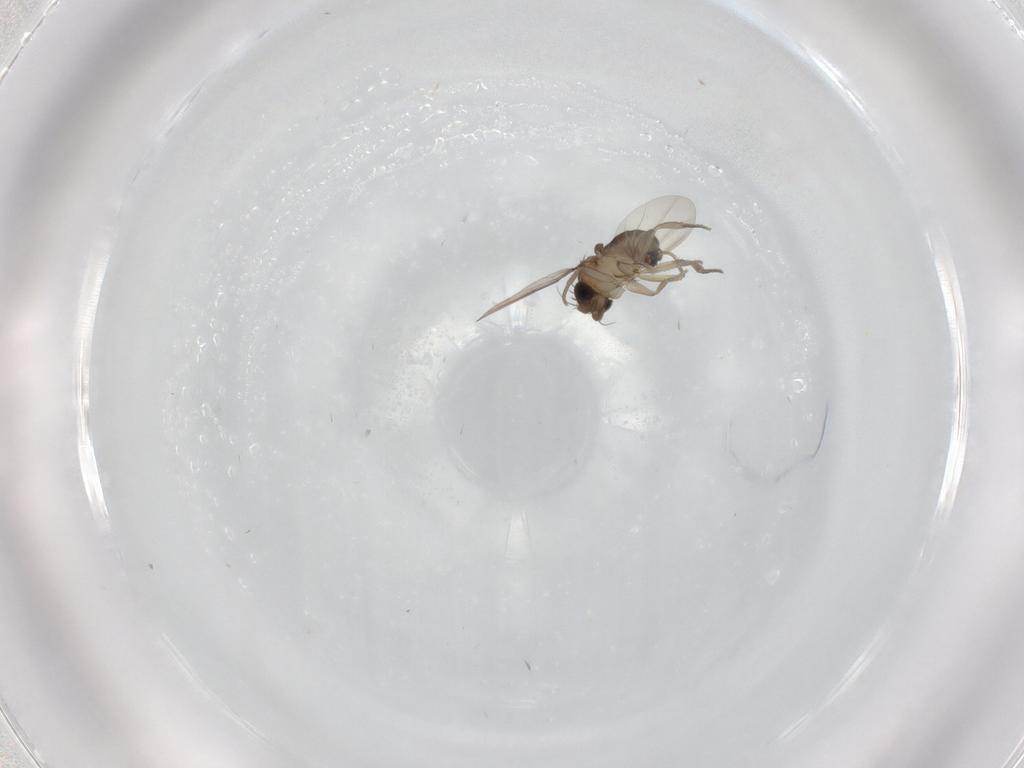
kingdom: Animalia
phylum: Arthropoda
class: Insecta
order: Diptera
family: Phoridae
